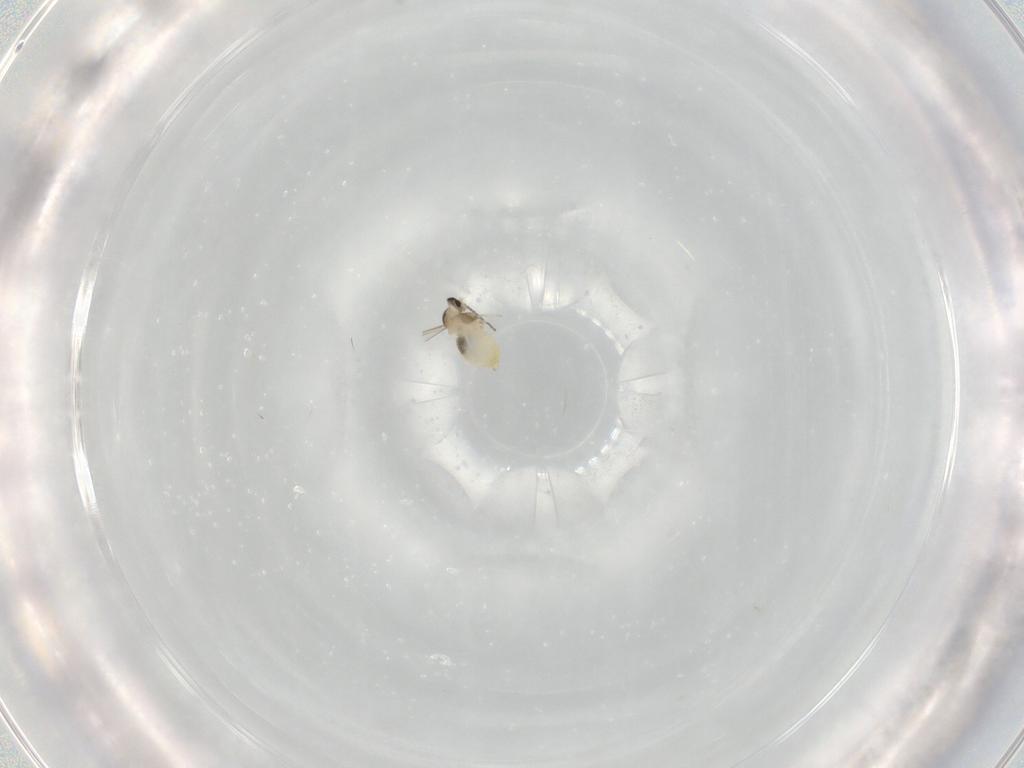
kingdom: Animalia
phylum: Arthropoda
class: Insecta
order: Diptera
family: Cecidomyiidae
